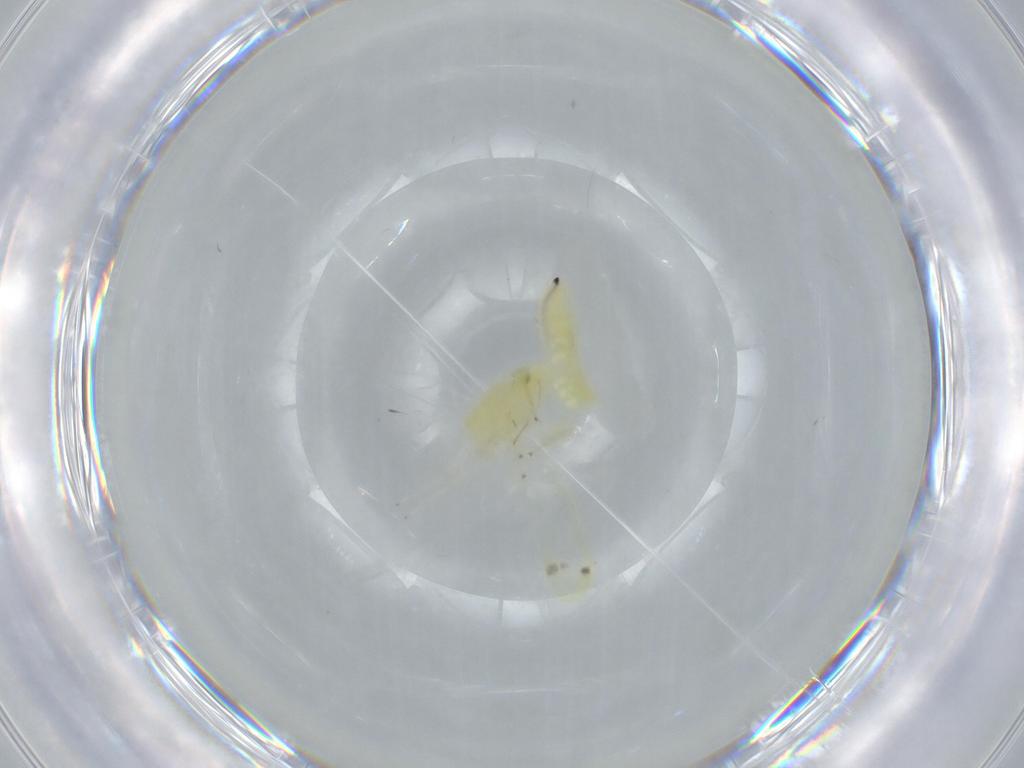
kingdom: Animalia
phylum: Arthropoda
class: Insecta
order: Hemiptera
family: Cicadellidae
